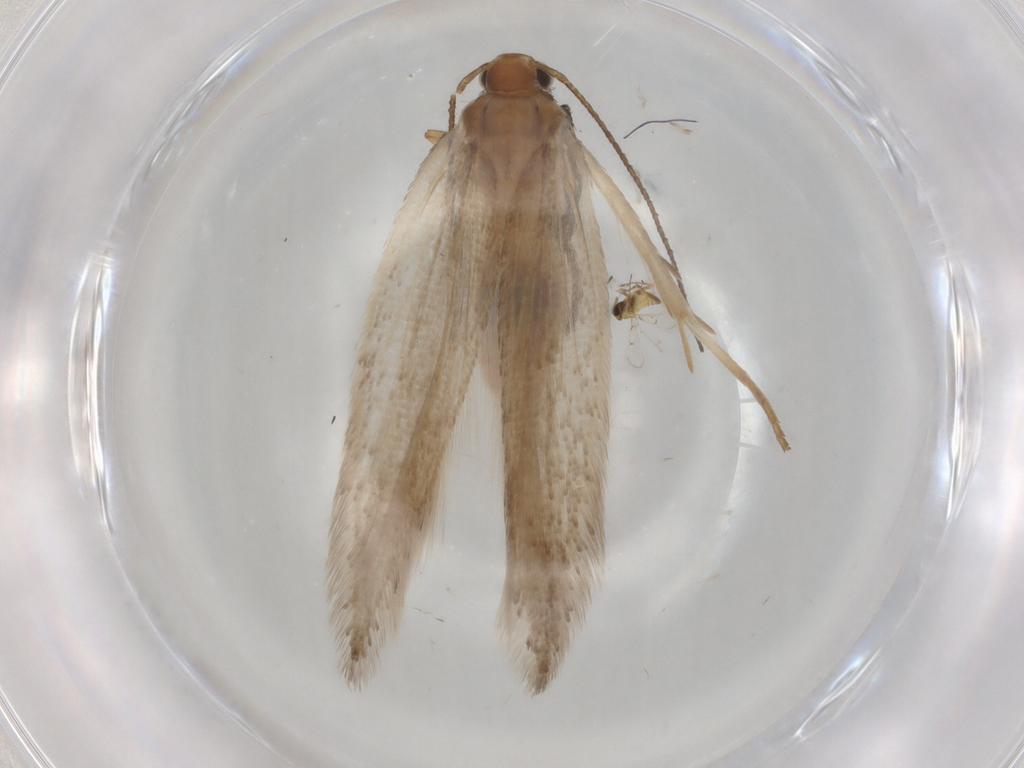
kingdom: Animalia
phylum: Arthropoda
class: Insecta
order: Lepidoptera
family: Gelechiidae
